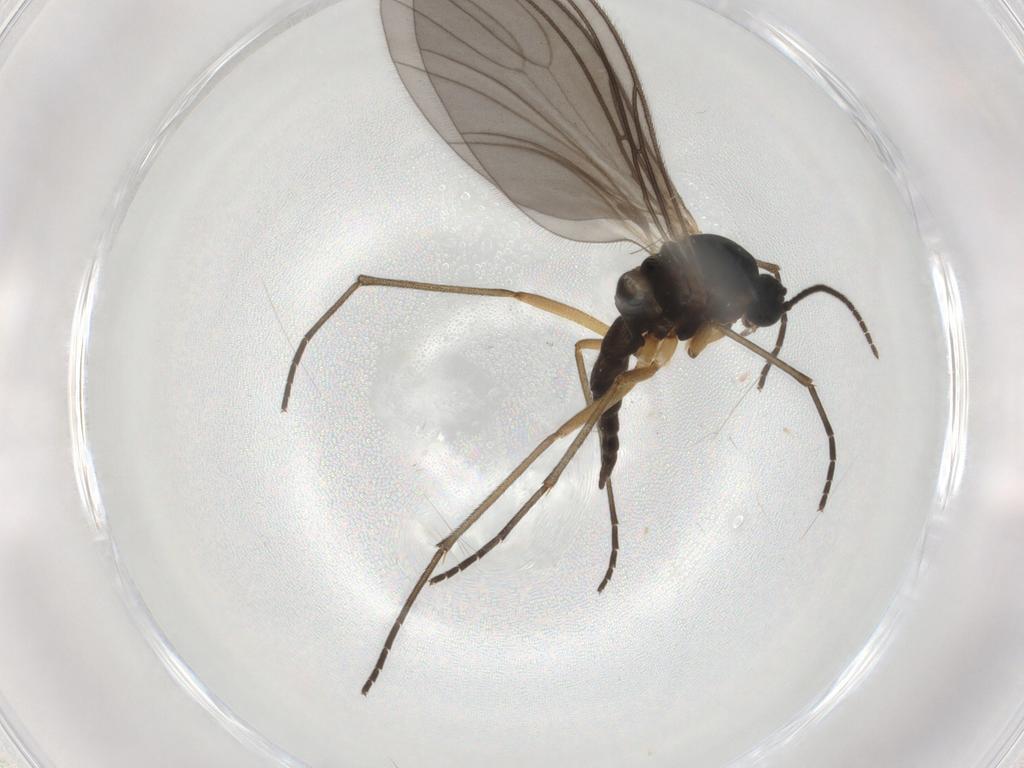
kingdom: Animalia
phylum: Arthropoda
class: Insecta
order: Diptera
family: Sciaridae
